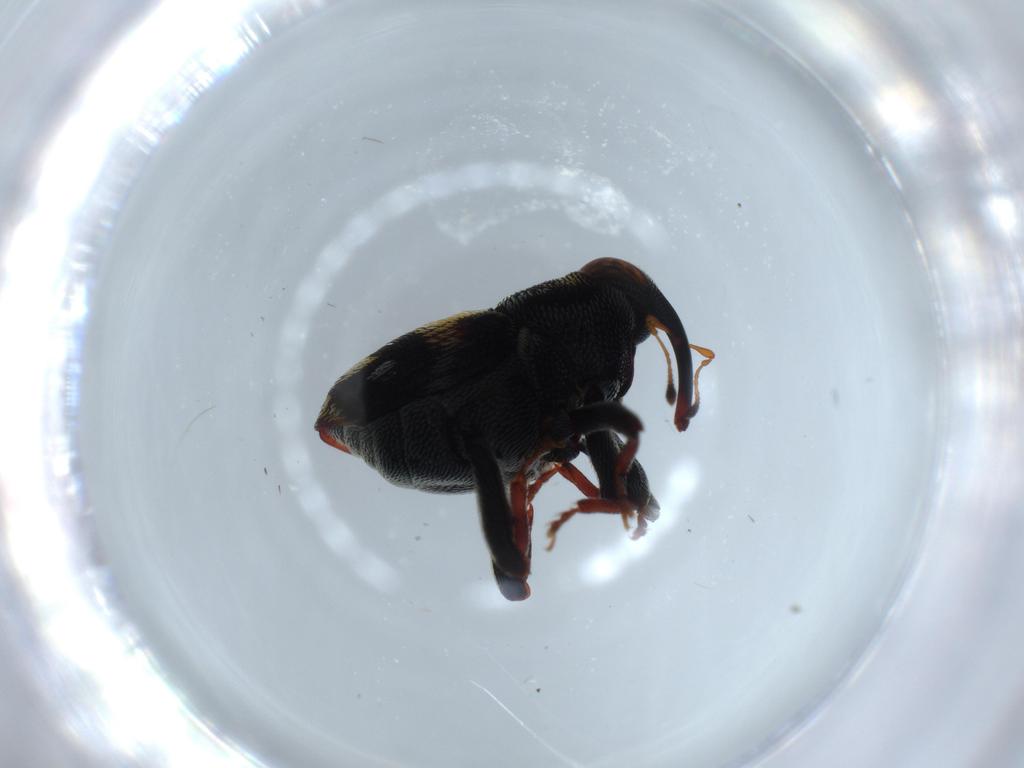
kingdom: Animalia
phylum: Arthropoda
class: Insecta
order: Coleoptera
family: Curculionidae
